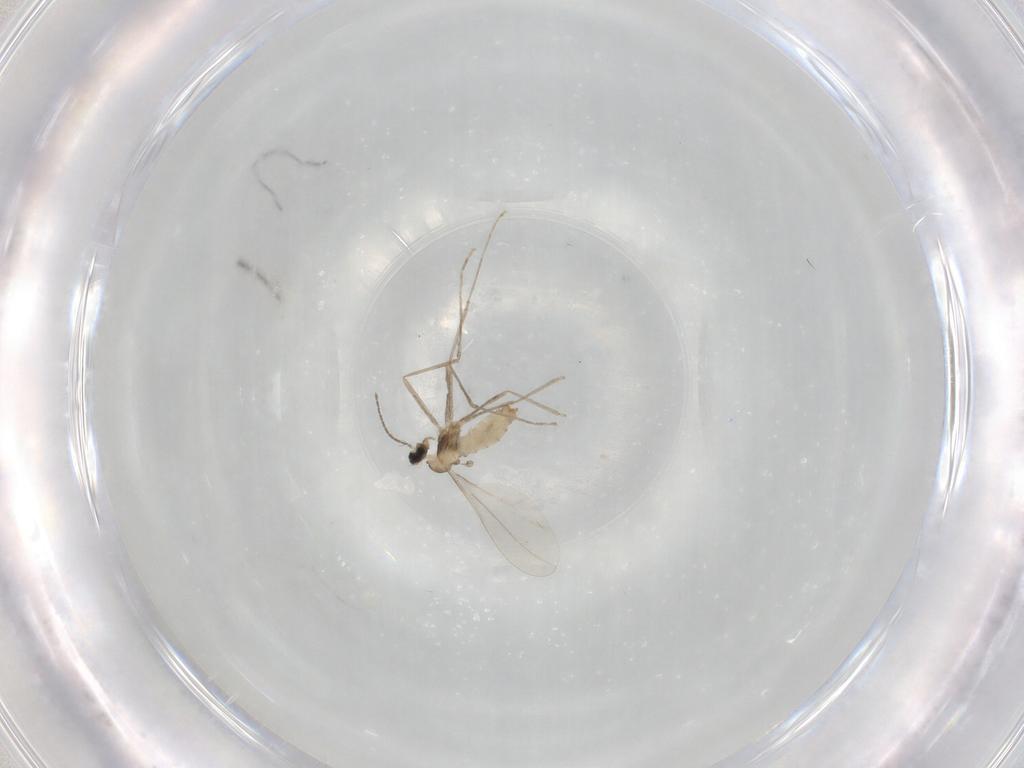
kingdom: Animalia
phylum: Arthropoda
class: Insecta
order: Diptera
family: Cecidomyiidae
